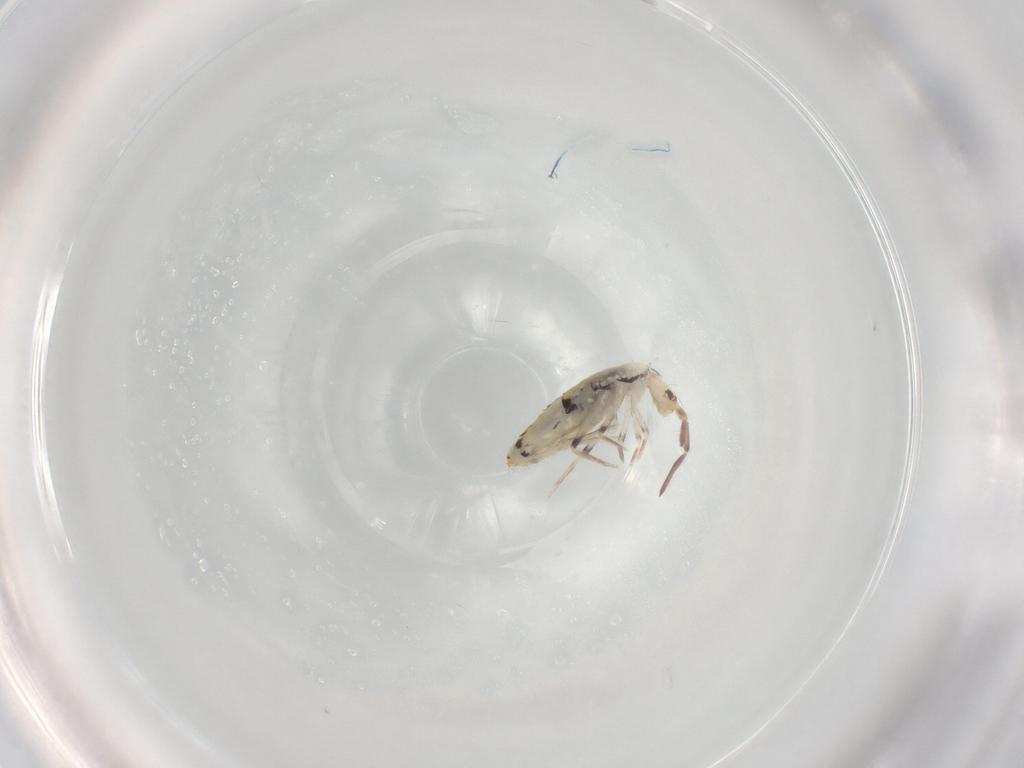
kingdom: Animalia
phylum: Arthropoda
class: Collembola
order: Entomobryomorpha
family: Entomobryidae
